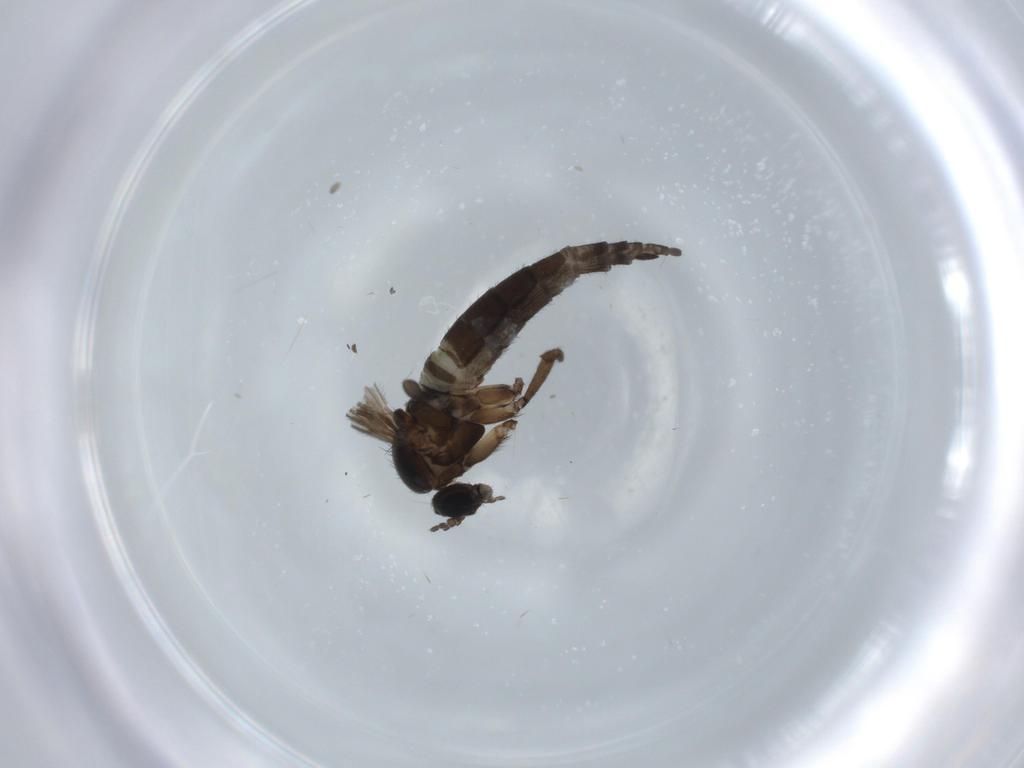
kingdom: Animalia
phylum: Arthropoda
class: Insecta
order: Diptera
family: Sciaridae
